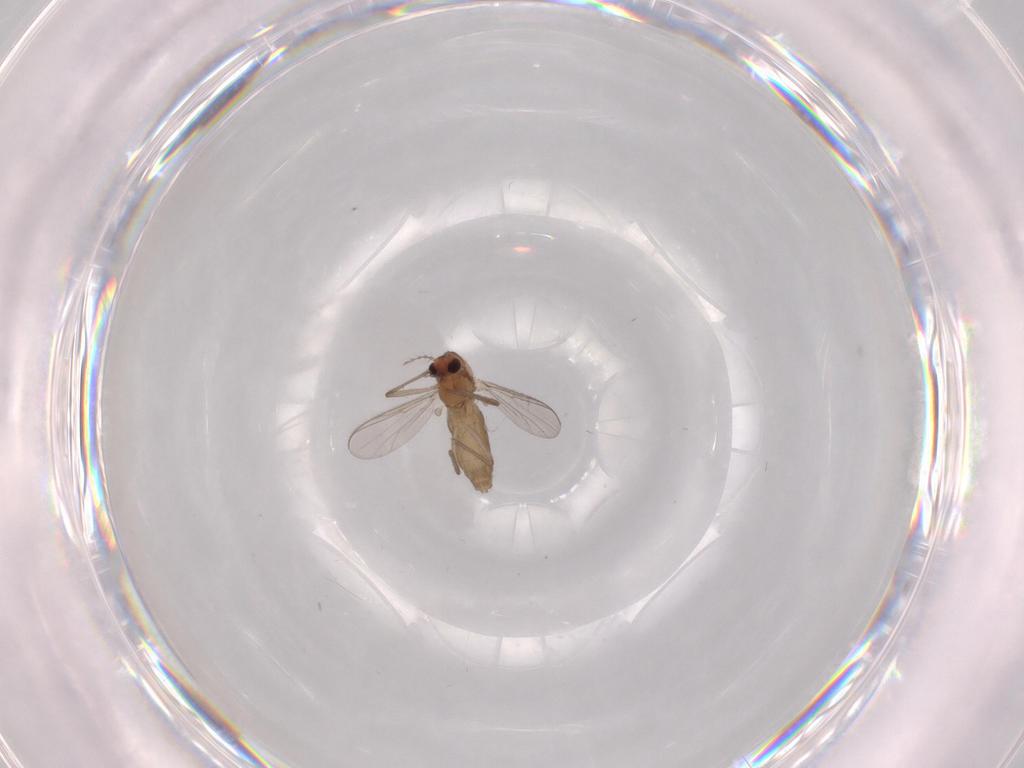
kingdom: Animalia
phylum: Arthropoda
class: Insecta
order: Diptera
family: Chironomidae
